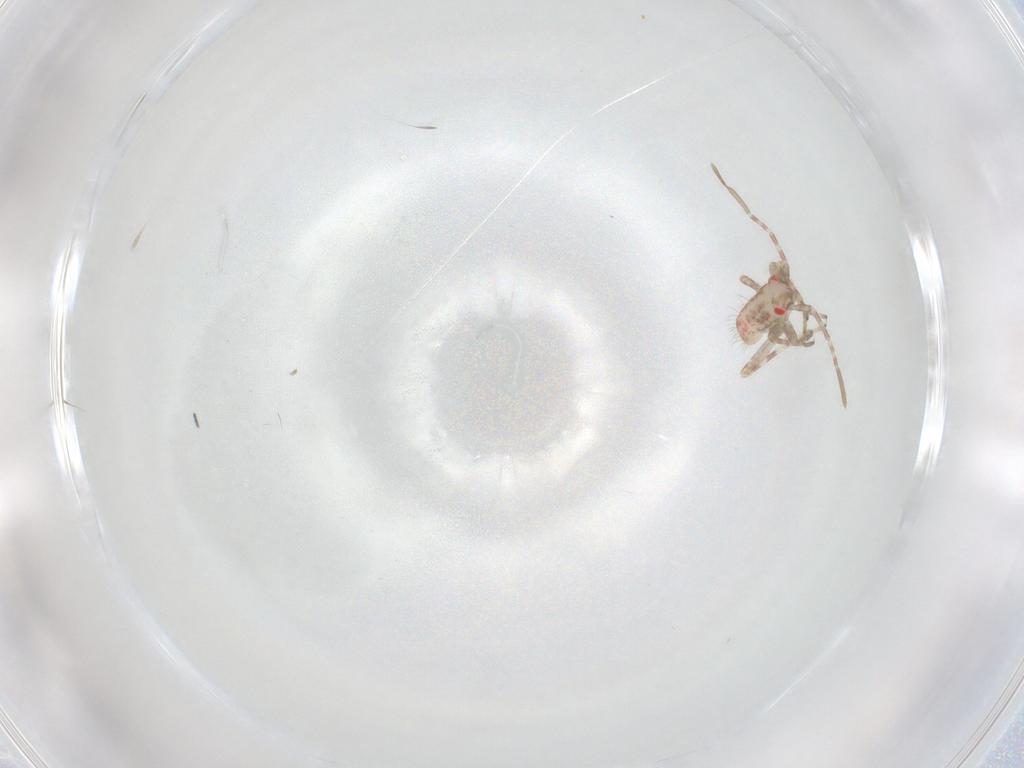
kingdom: Animalia
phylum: Arthropoda
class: Insecta
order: Hemiptera
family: Miridae
